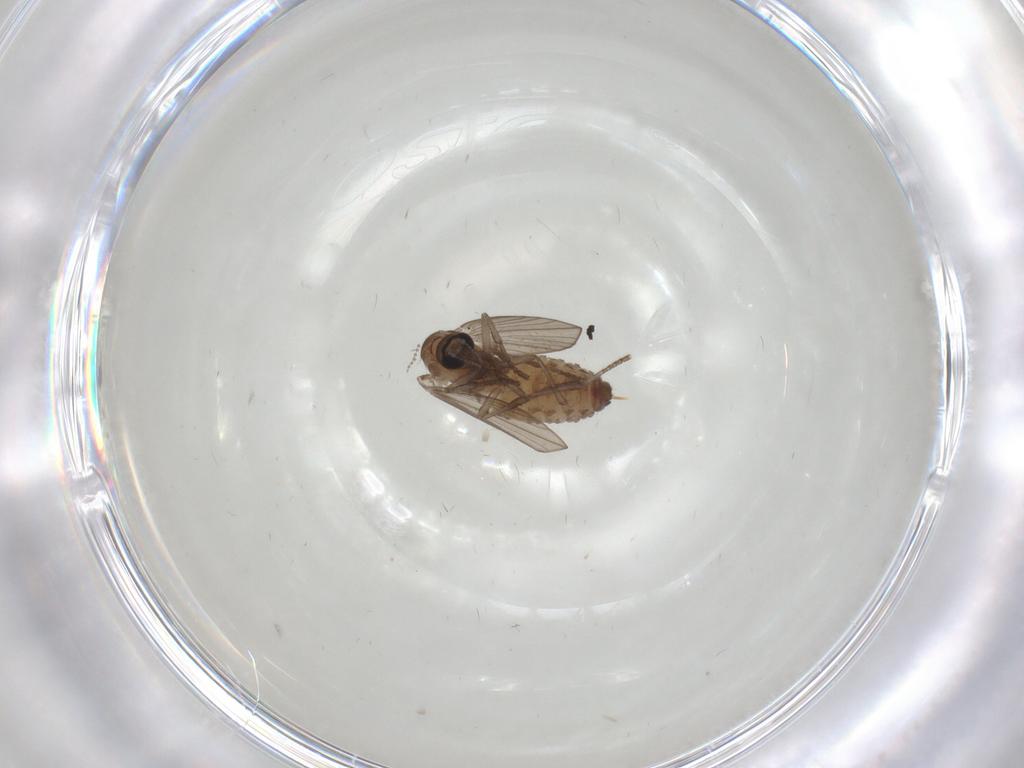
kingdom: Animalia
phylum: Arthropoda
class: Insecta
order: Diptera
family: Psychodidae
